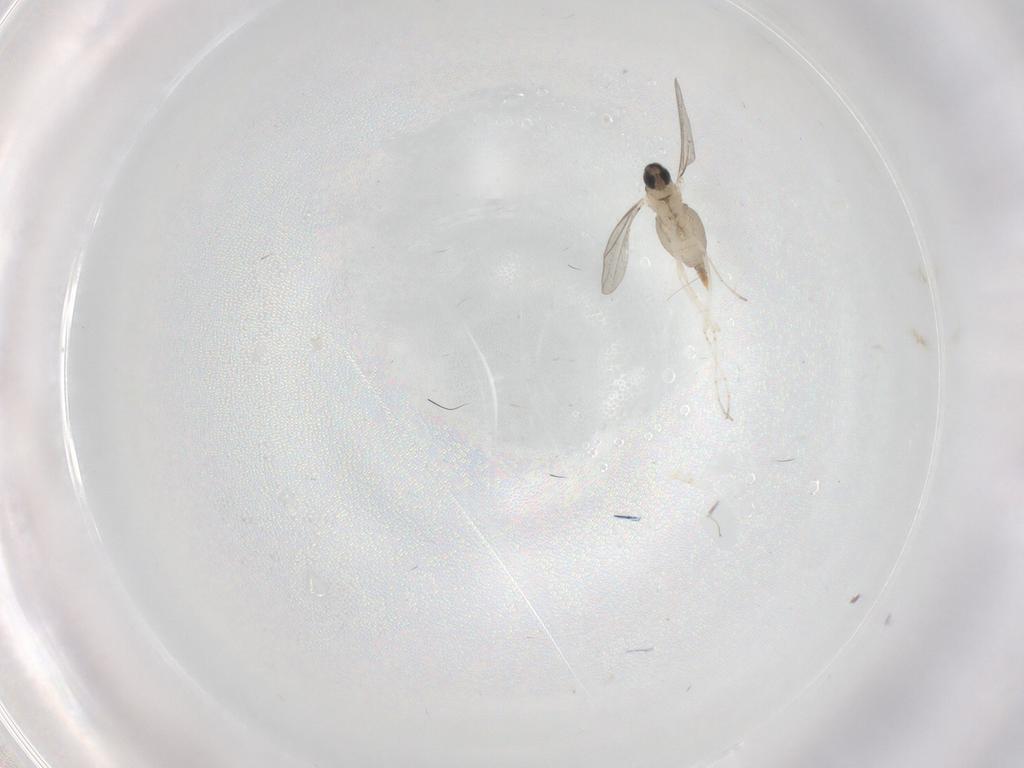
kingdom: Animalia
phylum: Arthropoda
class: Insecta
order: Diptera
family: Cecidomyiidae
